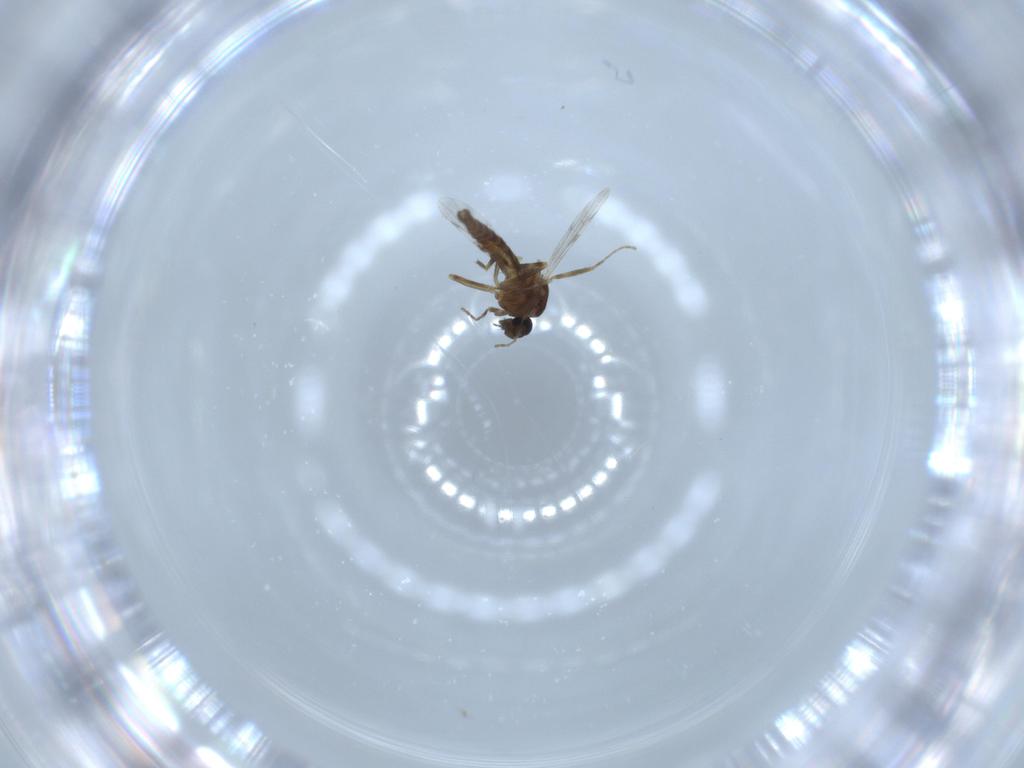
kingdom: Animalia
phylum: Arthropoda
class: Insecta
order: Diptera
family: Ceratopogonidae
